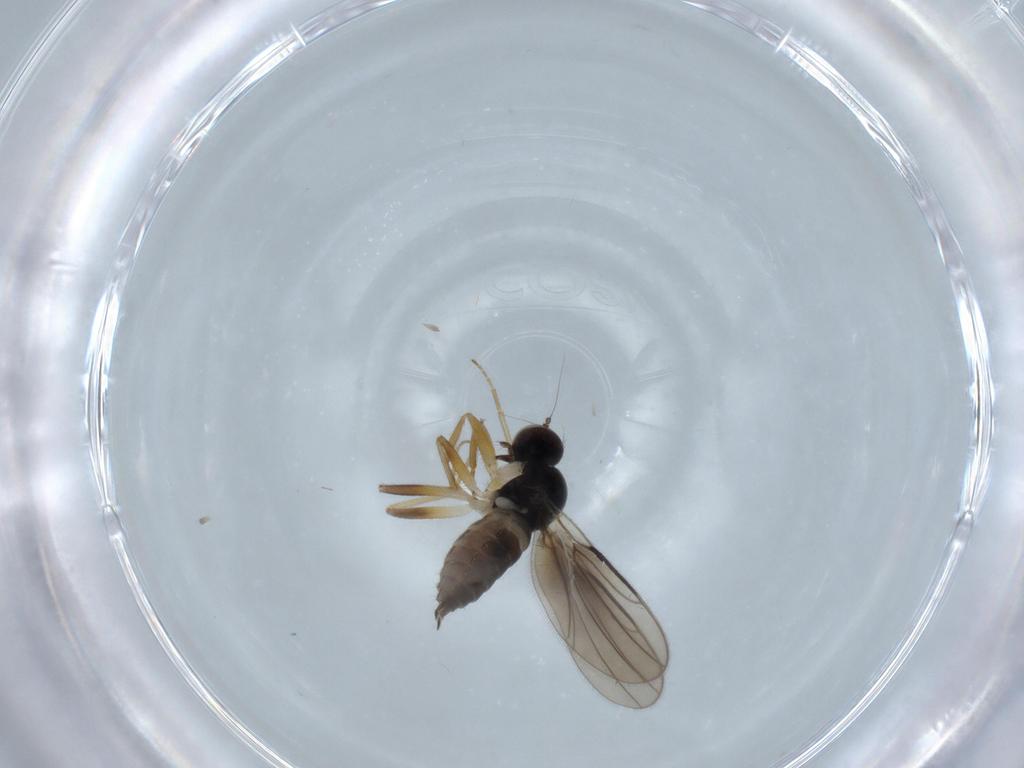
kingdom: Animalia
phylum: Arthropoda
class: Insecta
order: Diptera
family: Hybotidae
